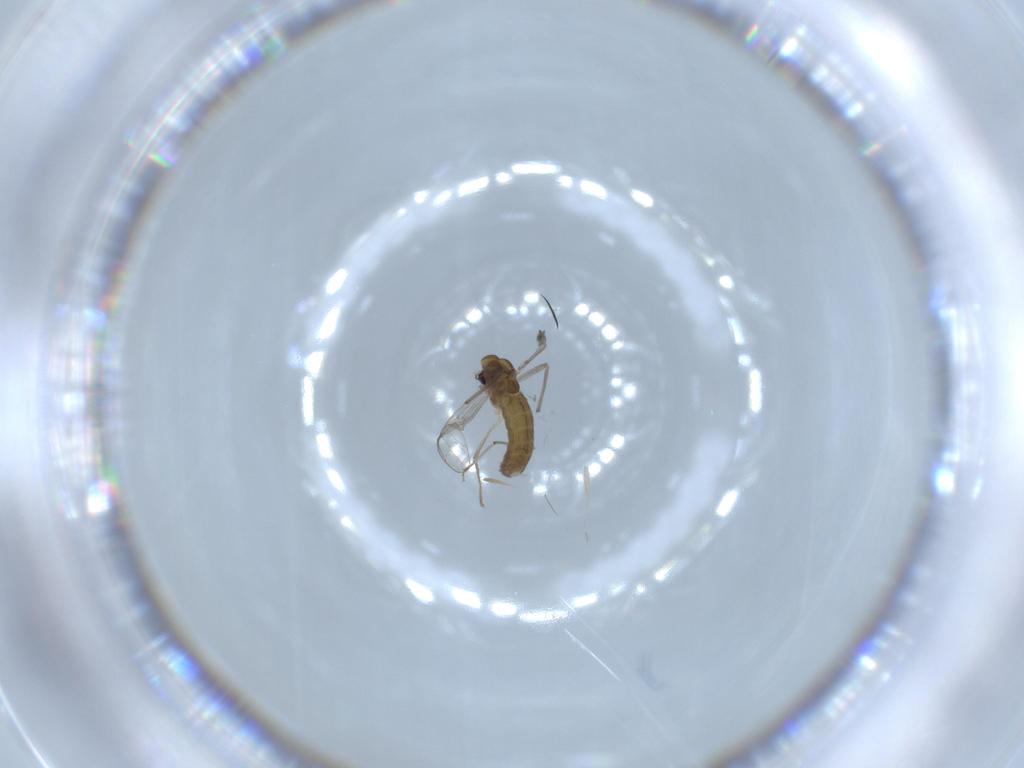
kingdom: Animalia
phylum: Arthropoda
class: Insecta
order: Diptera
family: Chironomidae
